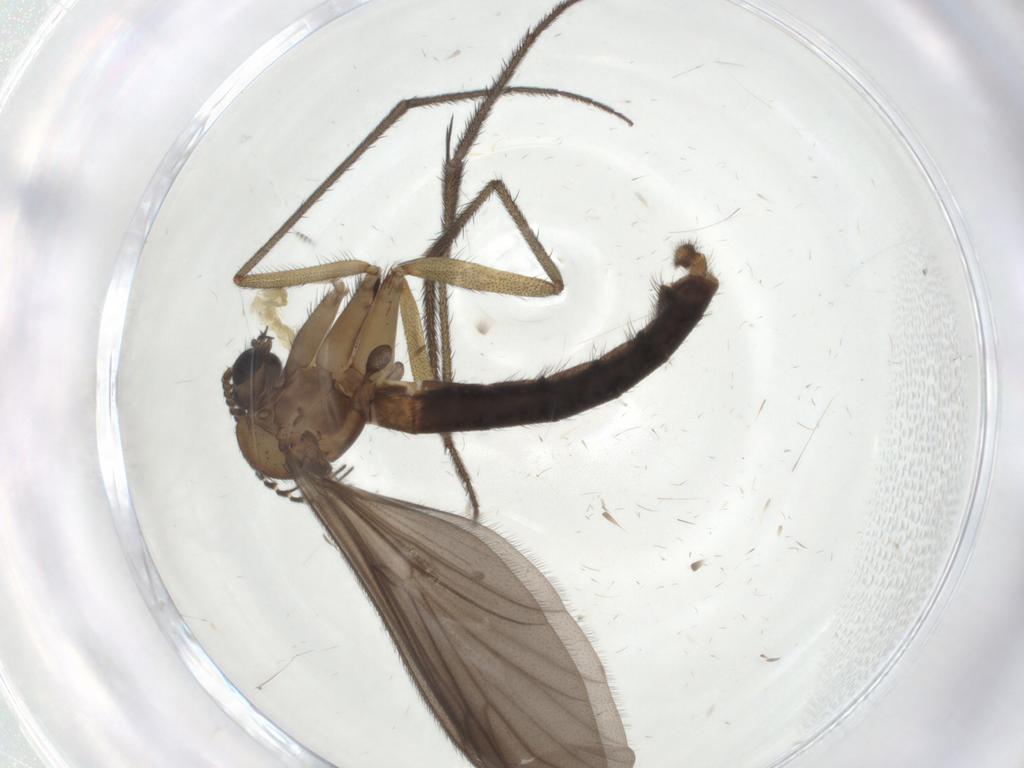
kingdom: Animalia
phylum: Arthropoda
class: Insecta
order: Diptera
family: Ditomyiidae
